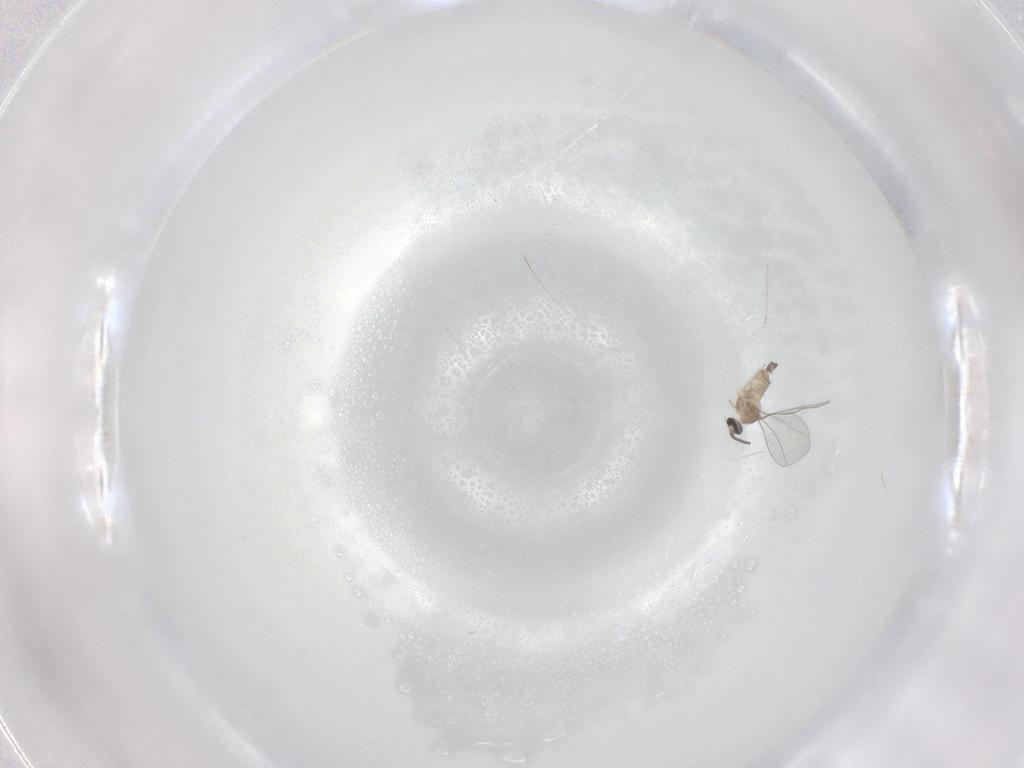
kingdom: Animalia
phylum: Arthropoda
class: Insecta
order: Diptera
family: Cecidomyiidae
